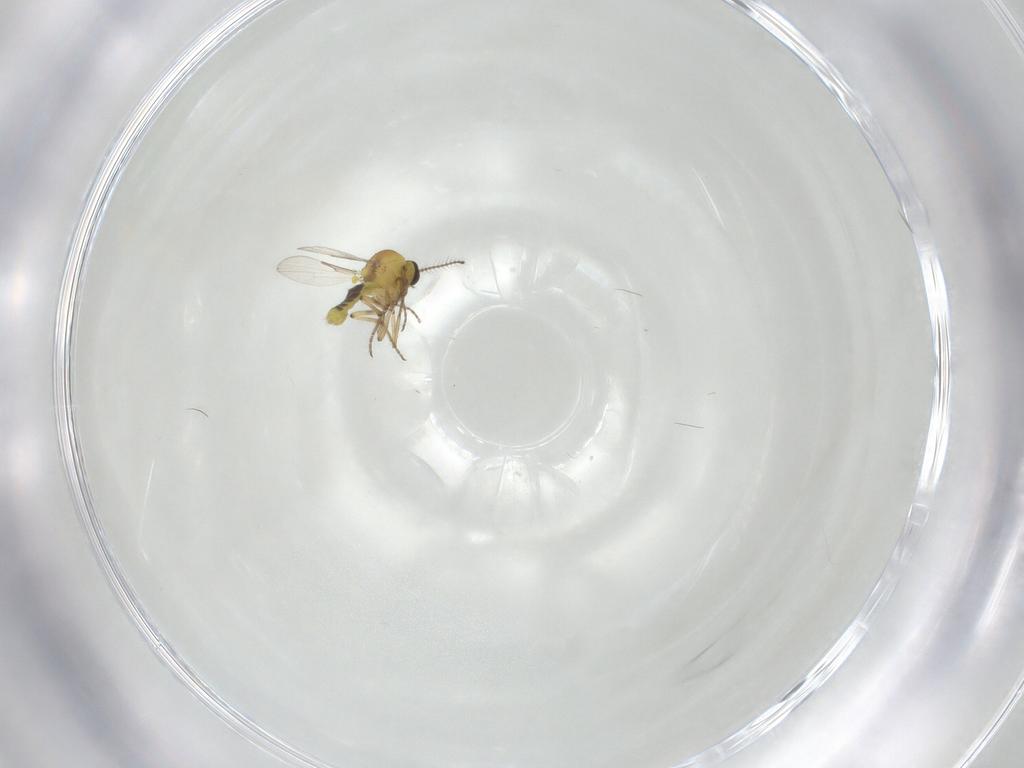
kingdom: Animalia
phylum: Arthropoda
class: Insecta
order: Diptera
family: Ceratopogonidae
